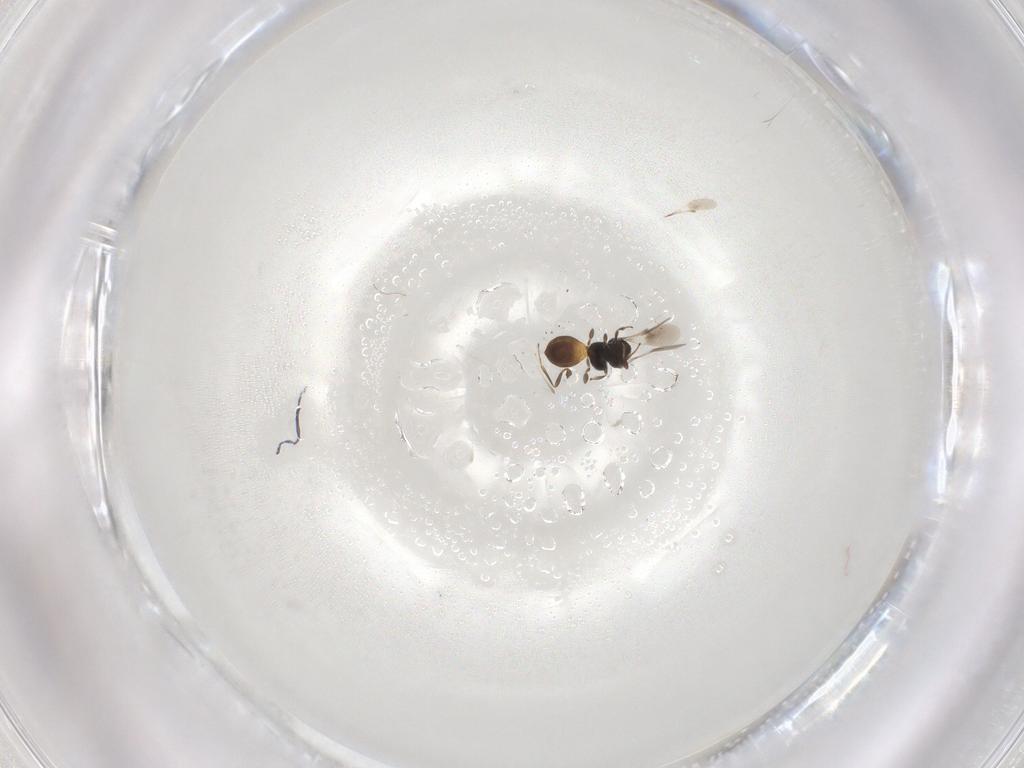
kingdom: Animalia
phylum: Arthropoda
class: Insecta
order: Hymenoptera
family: Scelionidae
